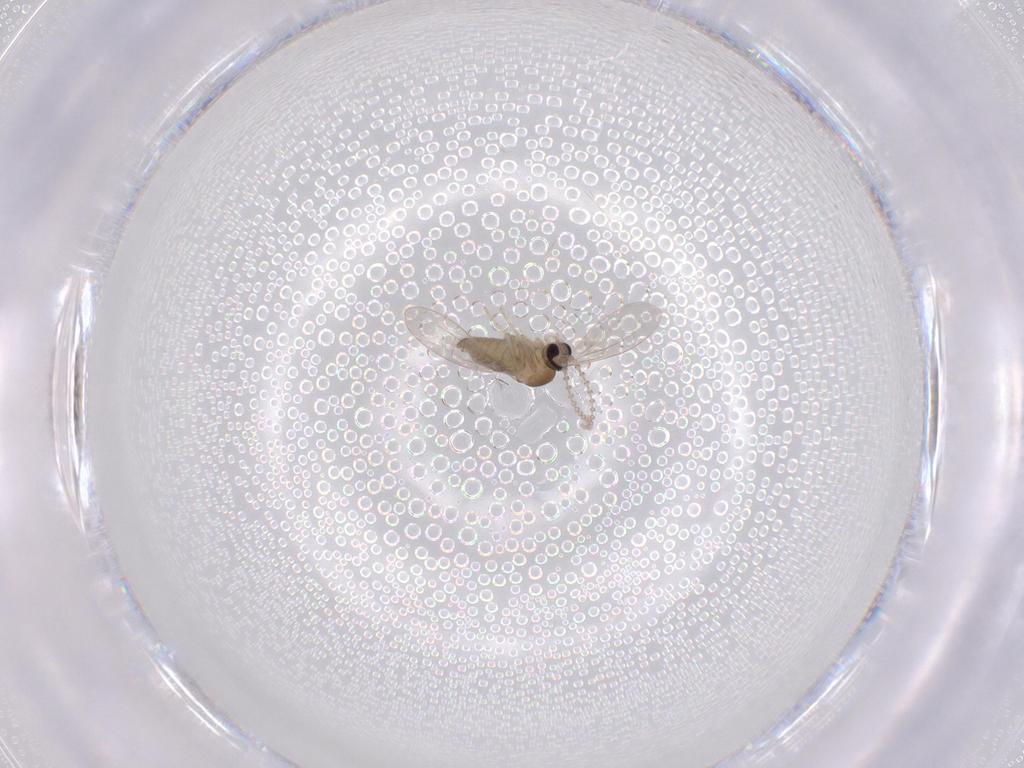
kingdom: Animalia
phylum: Arthropoda
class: Insecta
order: Diptera
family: Cecidomyiidae
